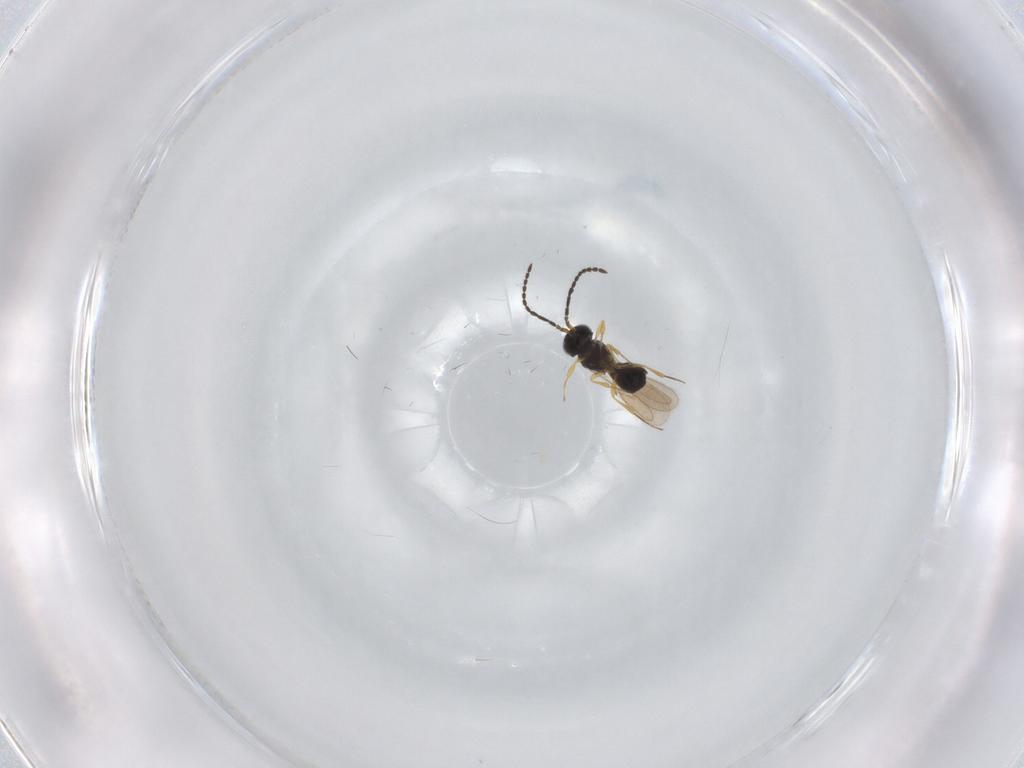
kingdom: Animalia
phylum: Arthropoda
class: Insecta
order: Hymenoptera
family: Scelionidae
